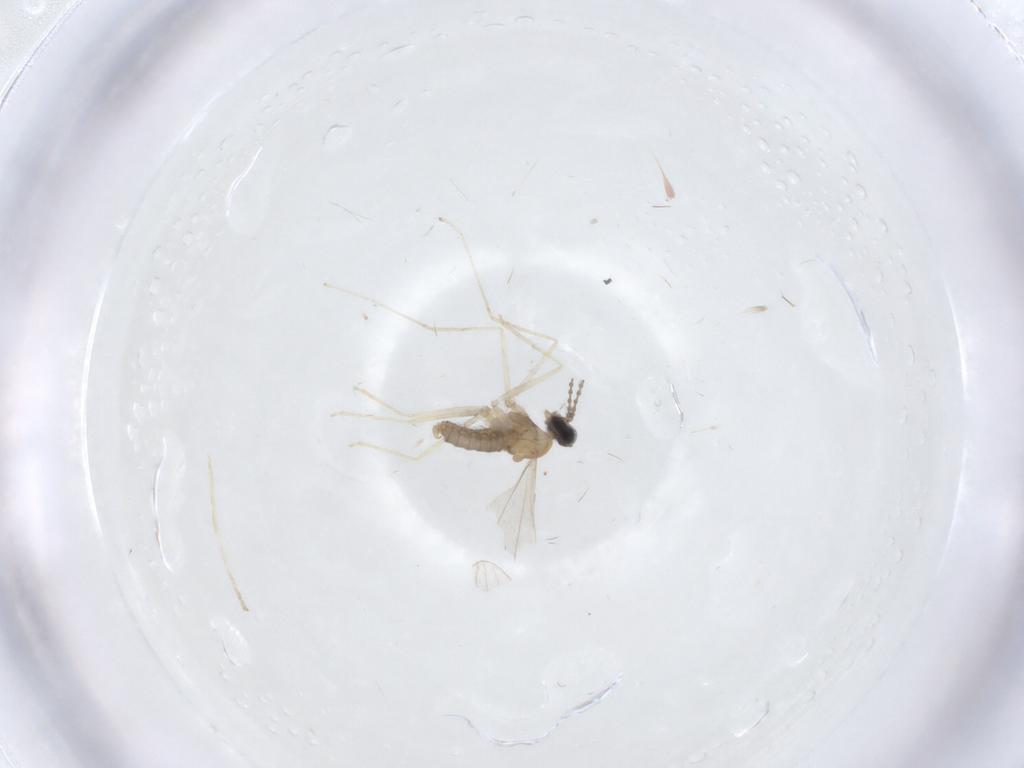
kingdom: Animalia
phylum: Arthropoda
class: Insecta
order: Diptera
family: Cecidomyiidae
